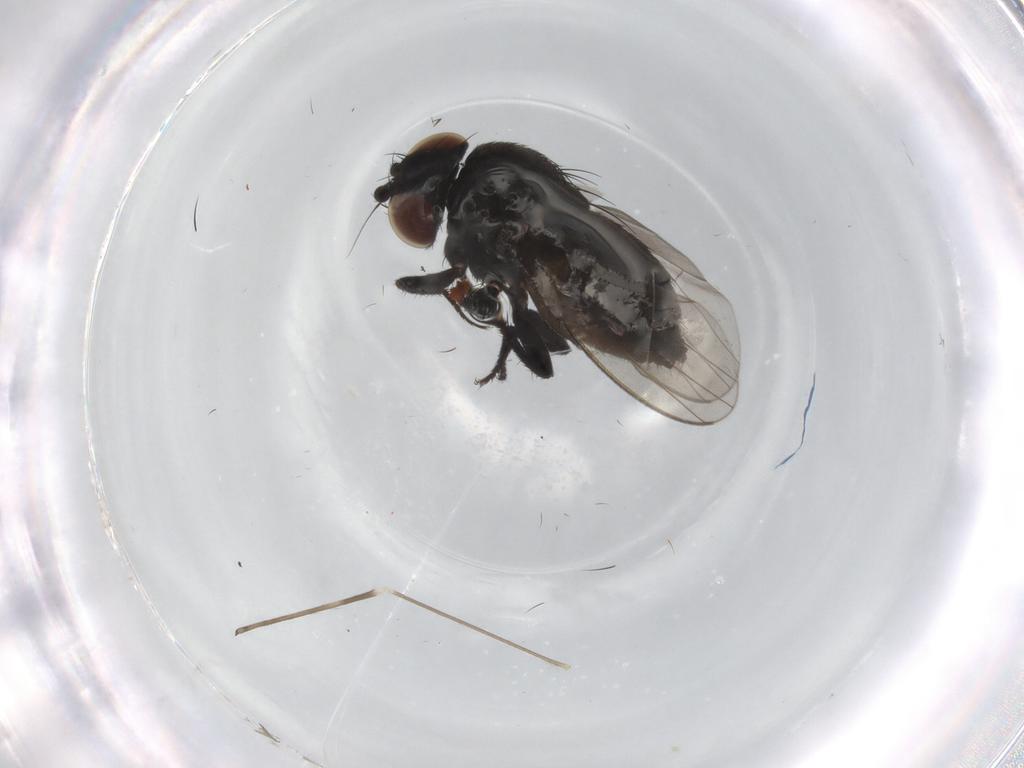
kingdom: Animalia
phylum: Arthropoda
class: Insecta
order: Diptera
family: Milichiidae
